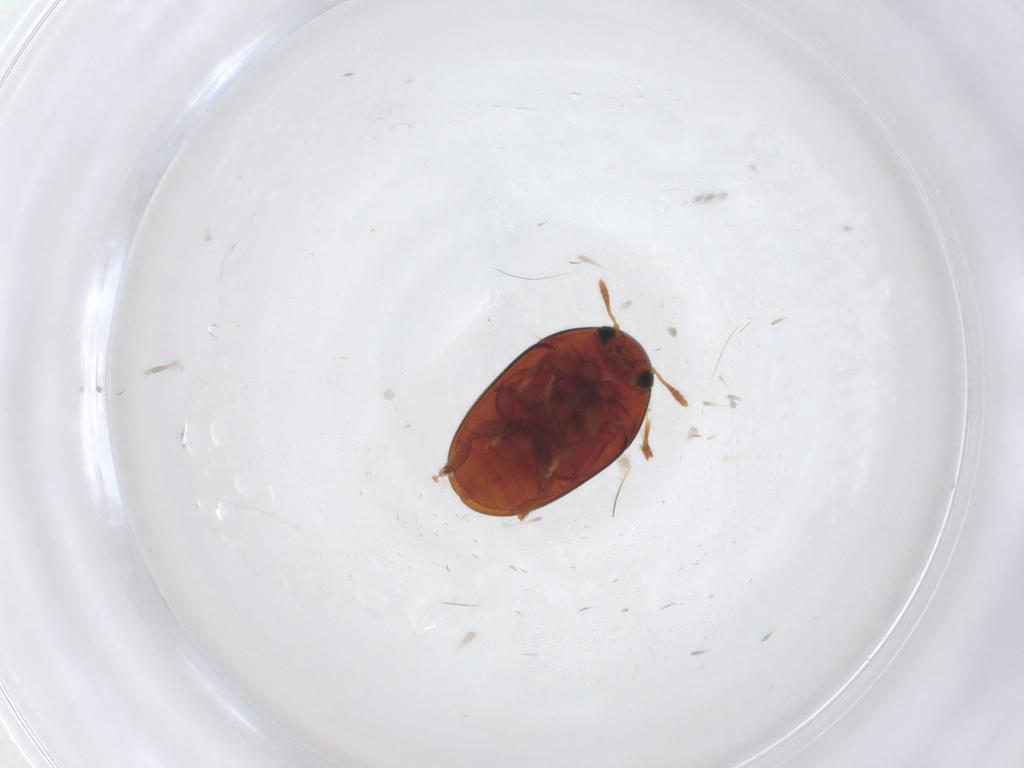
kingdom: Animalia
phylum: Arthropoda
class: Insecta
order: Coleoptera
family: Phalacridae
